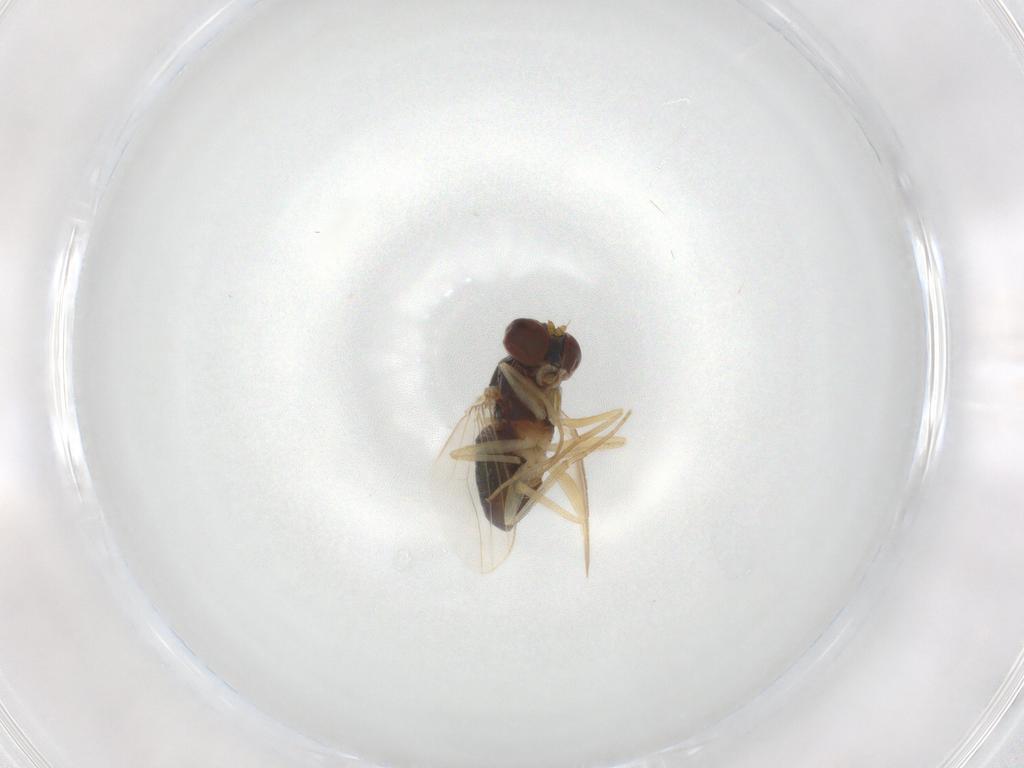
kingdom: Animalia
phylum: Arthropoda
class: Insecta
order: Diptera
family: Dolichopodidae
